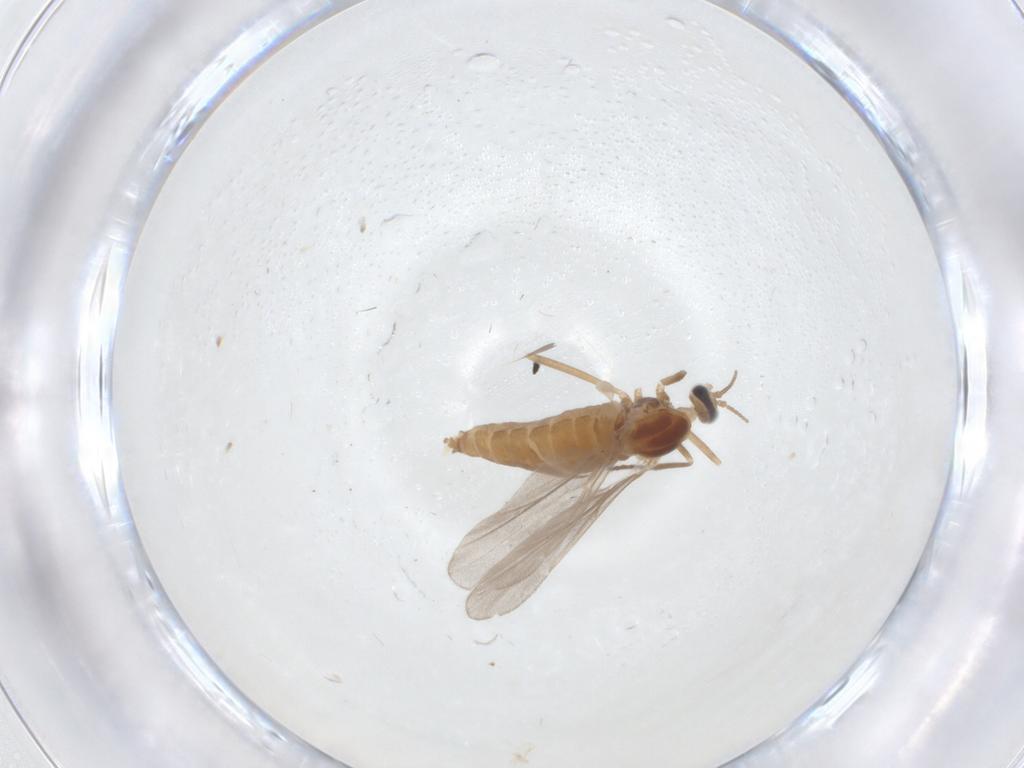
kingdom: Animalia
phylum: Arthropoda
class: Insecta
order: Diptera
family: Cecidomyiidae
